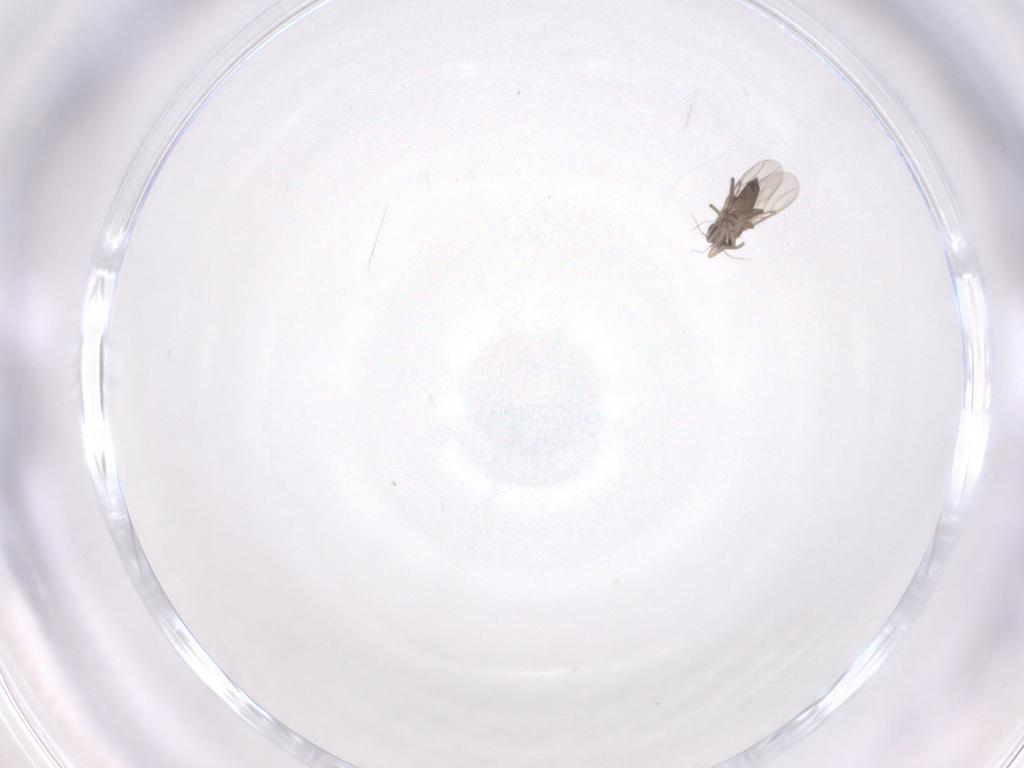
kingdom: Animalia
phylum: Arthropoda
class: Insecta
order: Diptera
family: Phoridae
